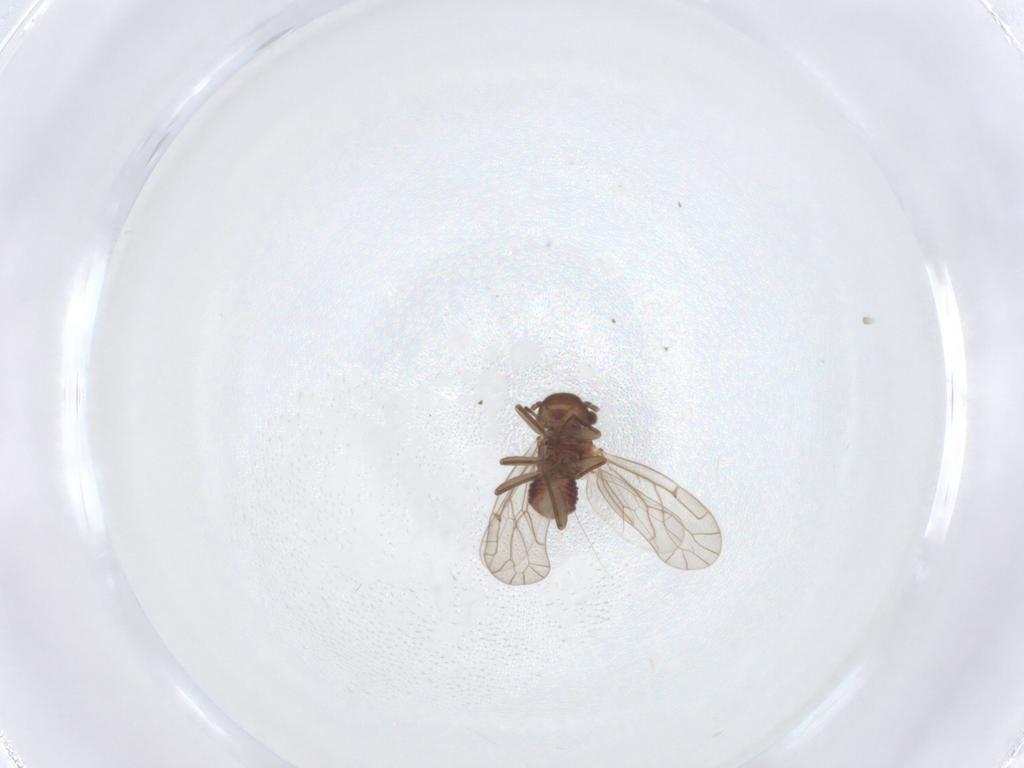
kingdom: Animalia
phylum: Arthropoda
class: Insecta
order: Psocodea
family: Ectopsocidae
